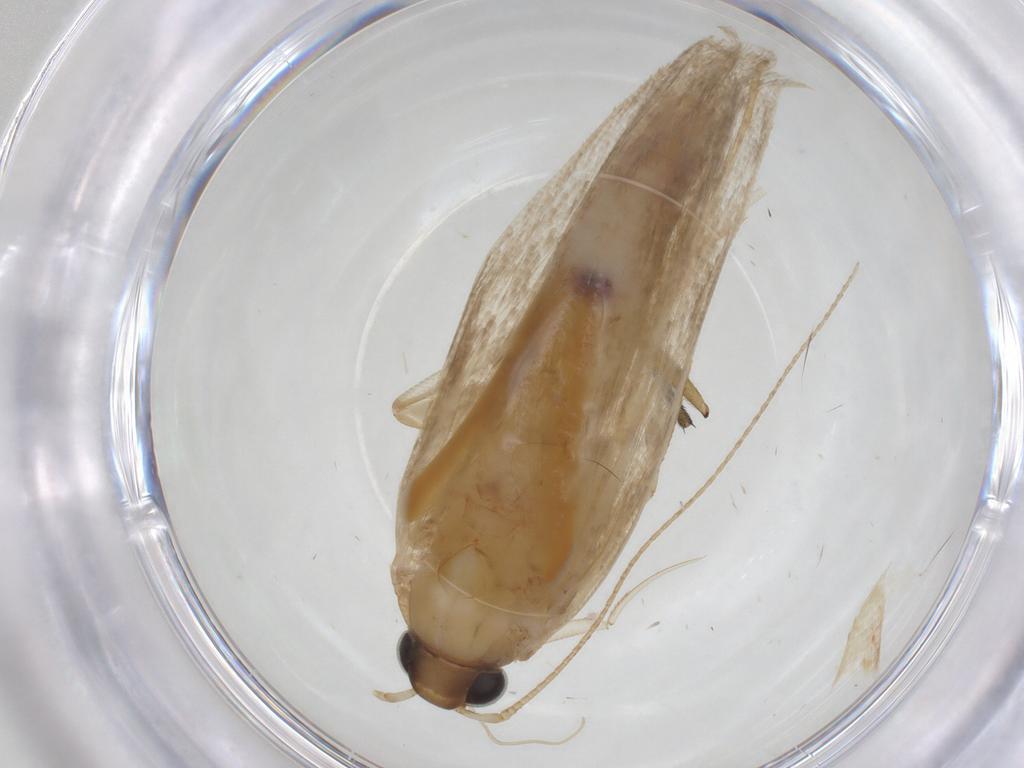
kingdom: Animalia
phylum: Arthropoda
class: Insecta
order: Lepidoptera
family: Gelechiidae
